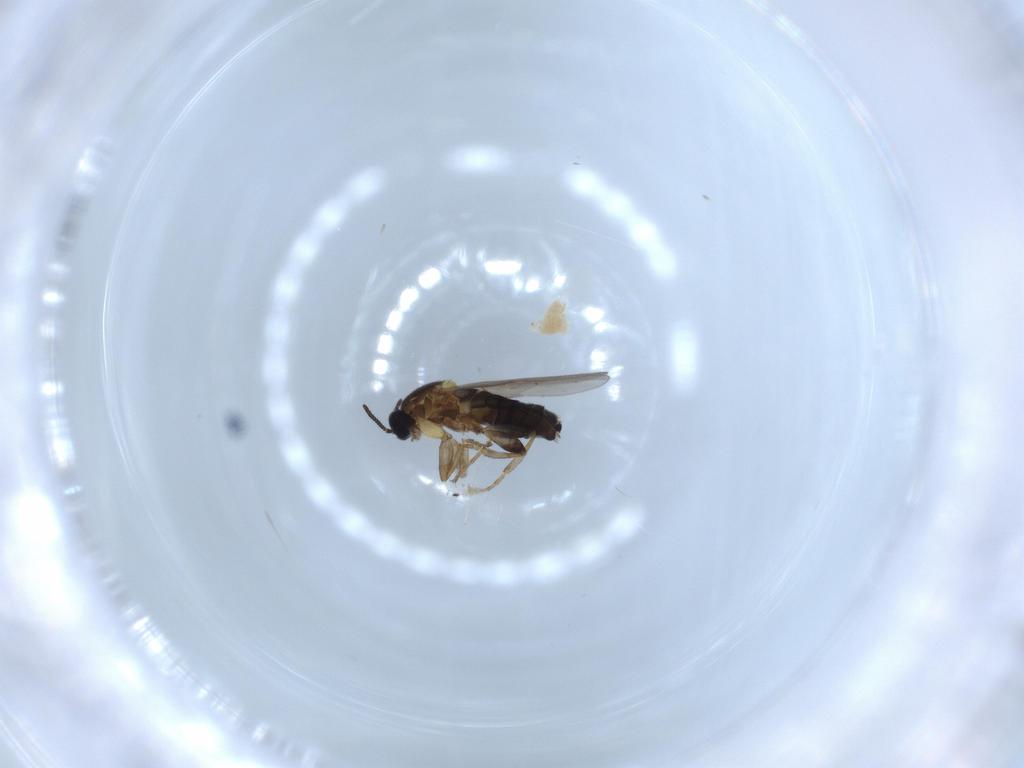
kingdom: Animalia
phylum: Arthropoda
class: Insecta
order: Diptera
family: Scatopsidae
